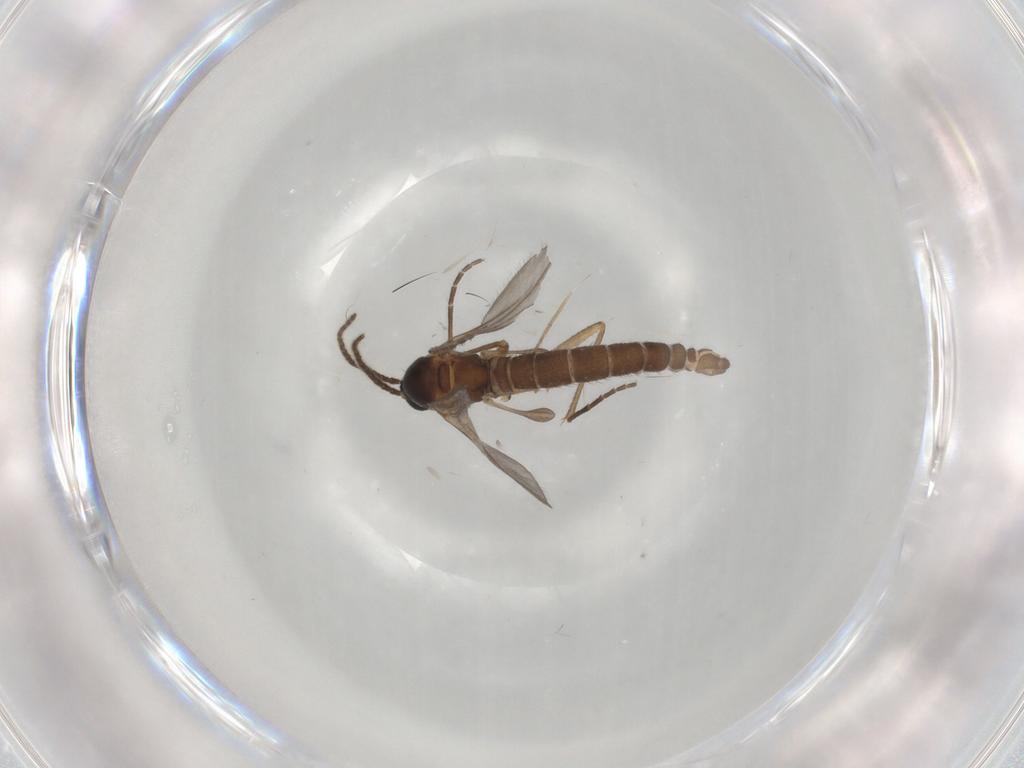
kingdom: Animalia
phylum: Arthropoda
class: Insecta
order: Diptera
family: Sciaridae
